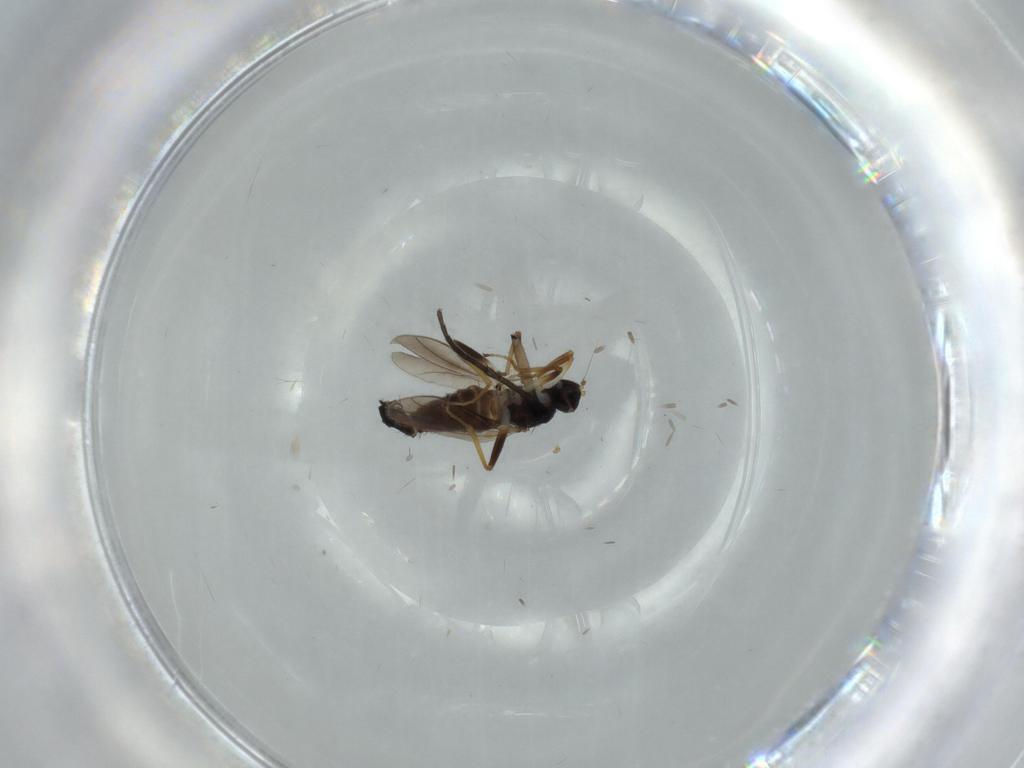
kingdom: Animalia
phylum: Arthropoda
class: Insecta
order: Diptera
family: Hybotidae
